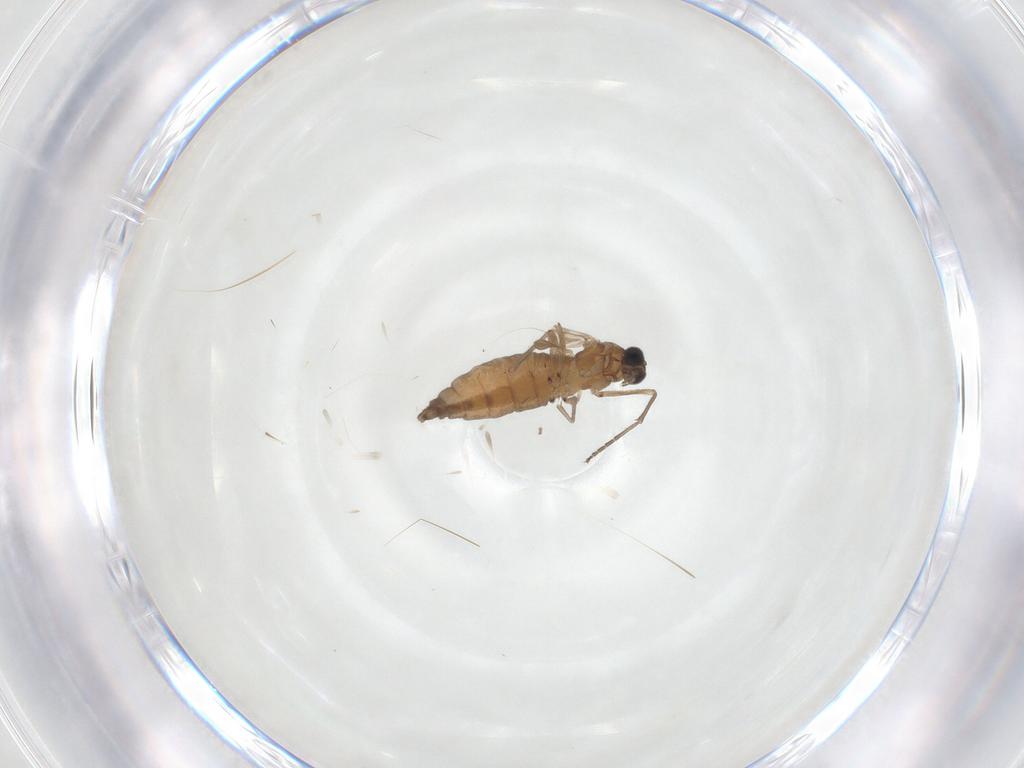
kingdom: Animalia
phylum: Arthropoda
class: Insecta
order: Diptera
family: Sciaridae
